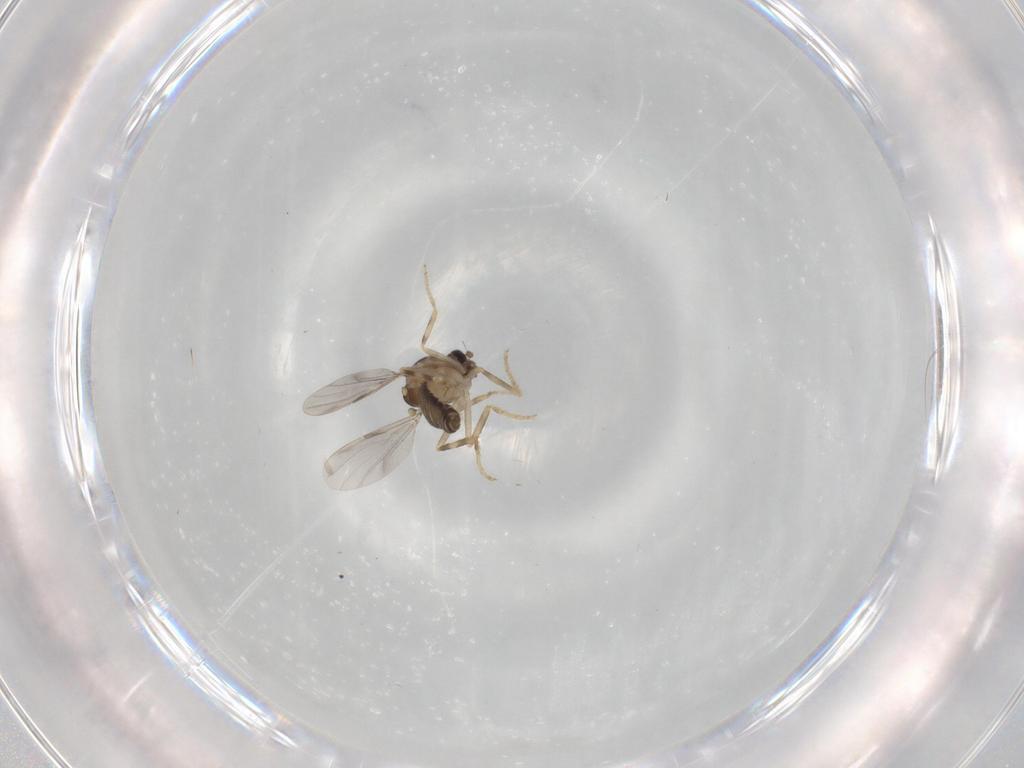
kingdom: Animalia
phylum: Arthropoda
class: Insecta
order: Diptera
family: Ceratopogonidae
